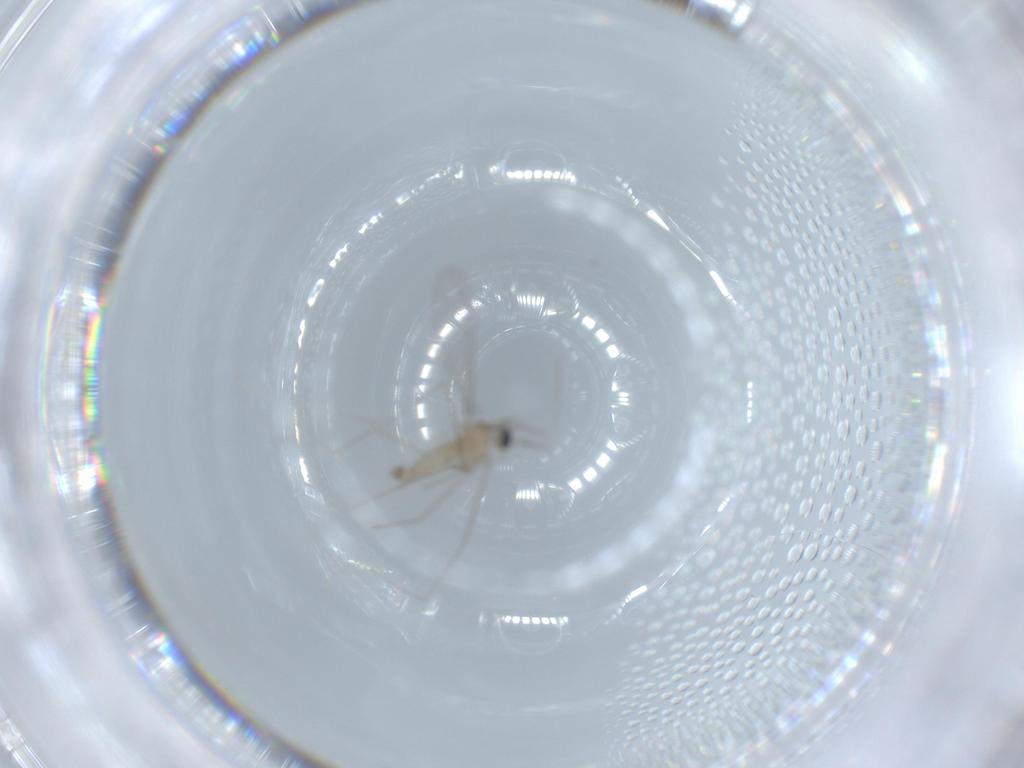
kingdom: Animalia
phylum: Arthropoda
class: Insecta
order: Diptera
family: Cecidomyiidae
